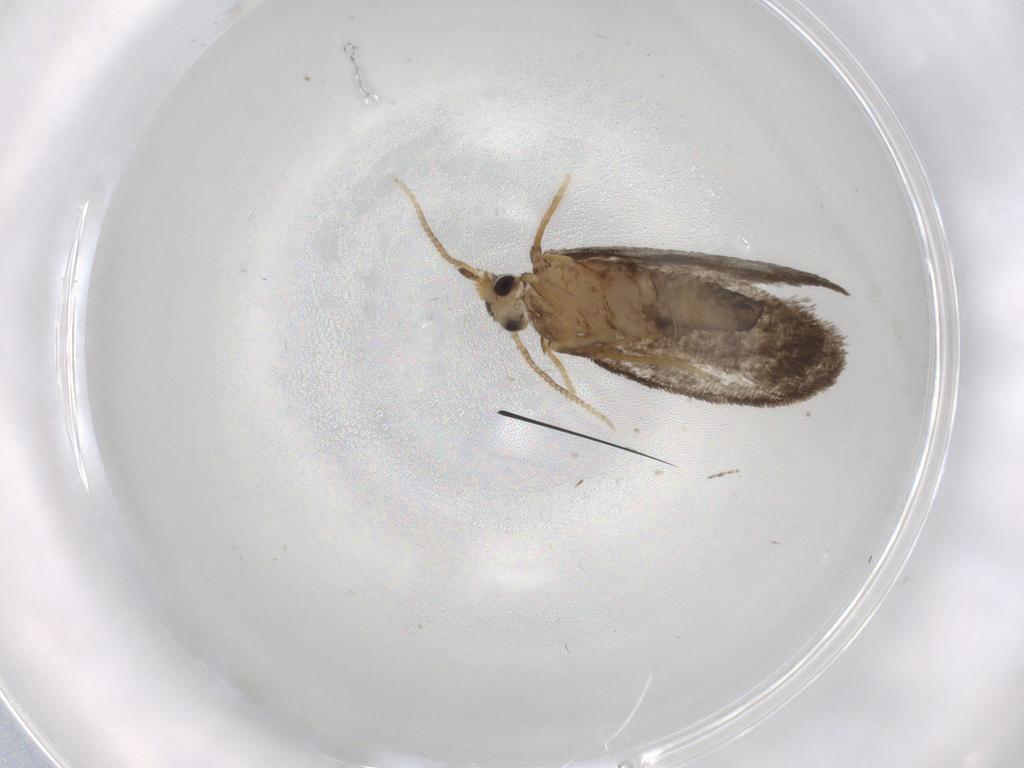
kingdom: Animalia
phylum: Arthropoda
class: Insecta
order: Lepidoptera
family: Psychidae
